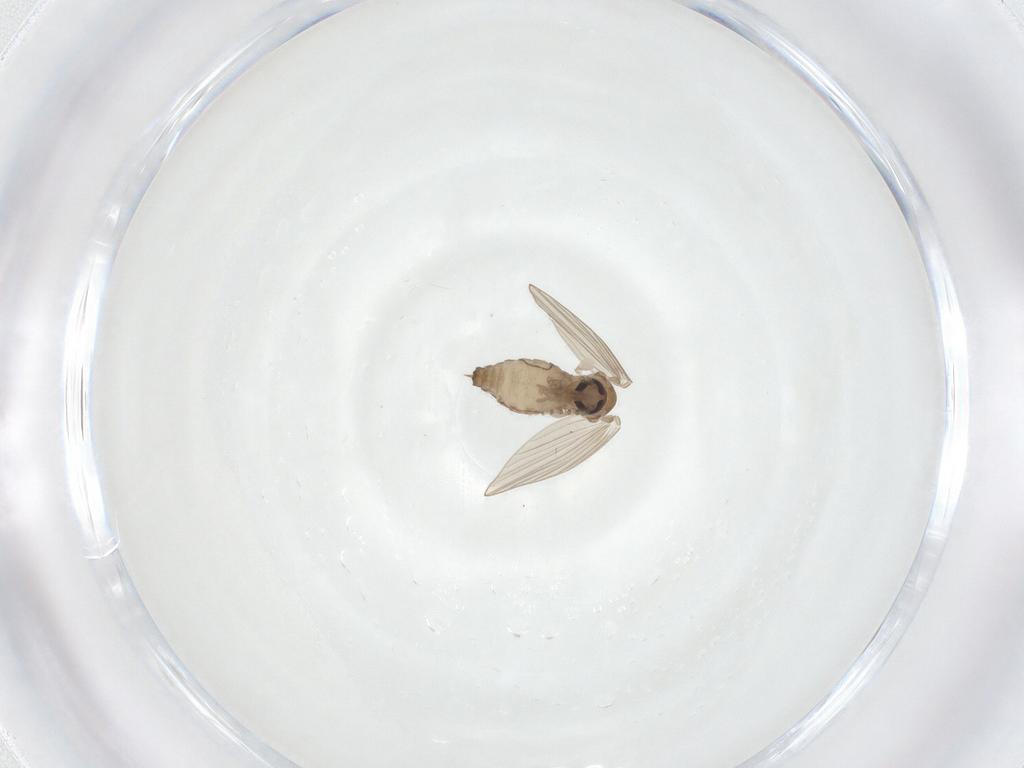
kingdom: Animalia
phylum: Arthropoda
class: Insecta
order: Diptera
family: Psychodidae
